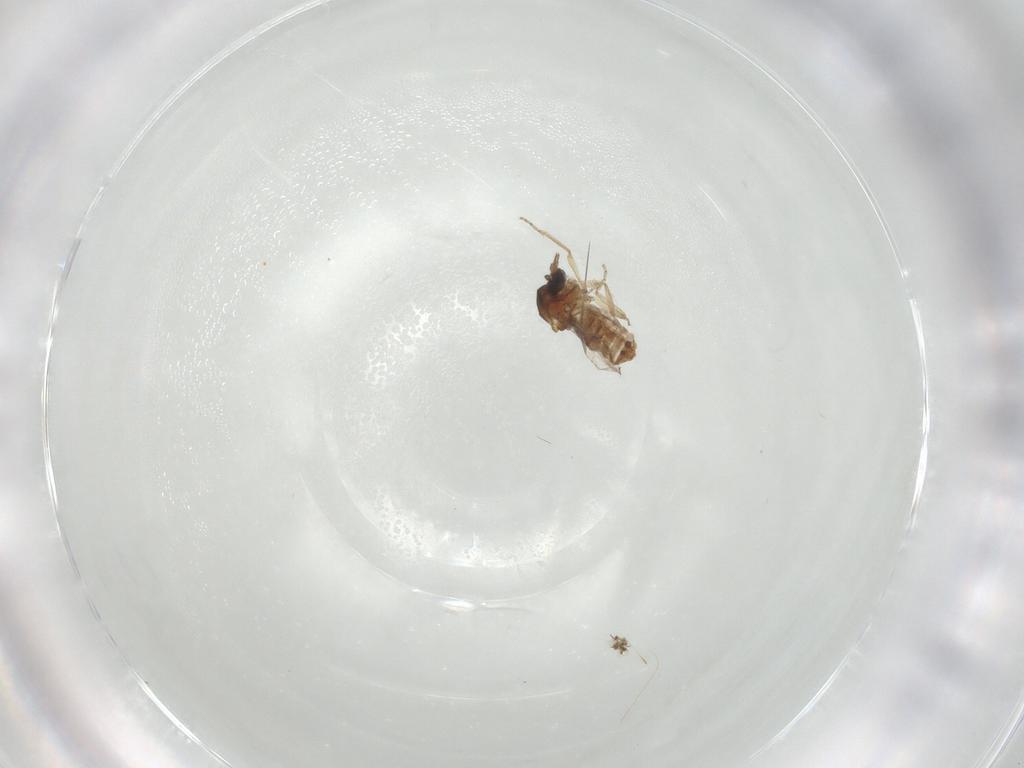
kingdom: Animalia
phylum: Arthropoda
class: Insecta
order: Diptera
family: Ceratopogonidae
